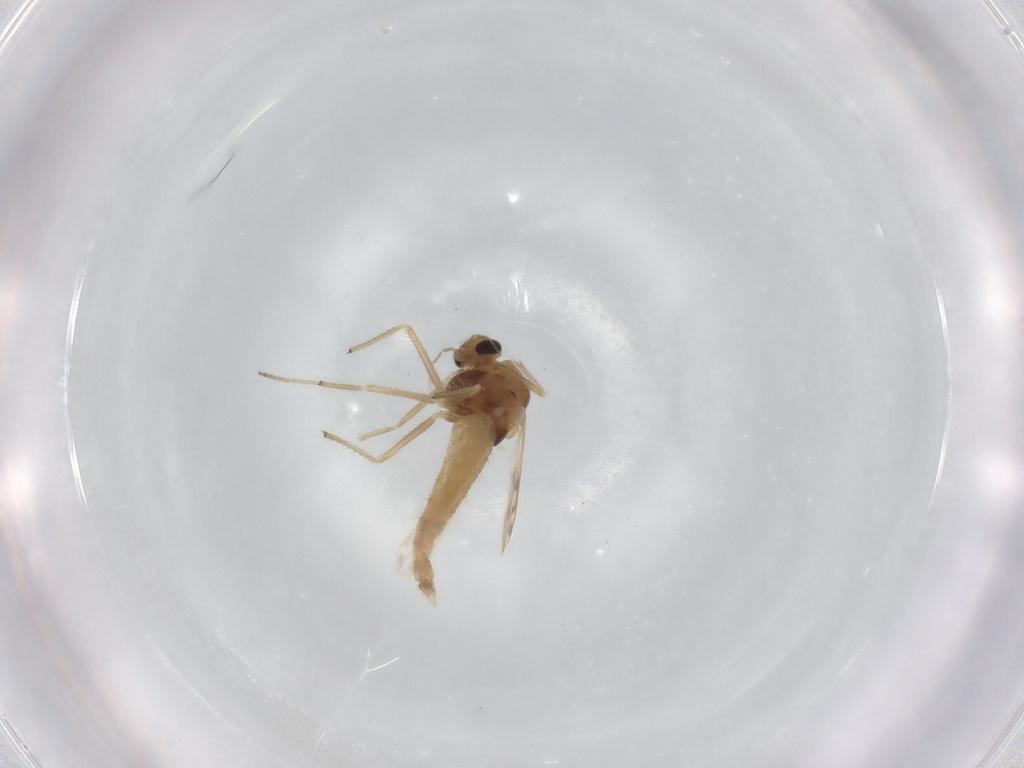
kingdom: Animalia
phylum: Arthropoda
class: Insecta
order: Diptera
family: Chironomidae
